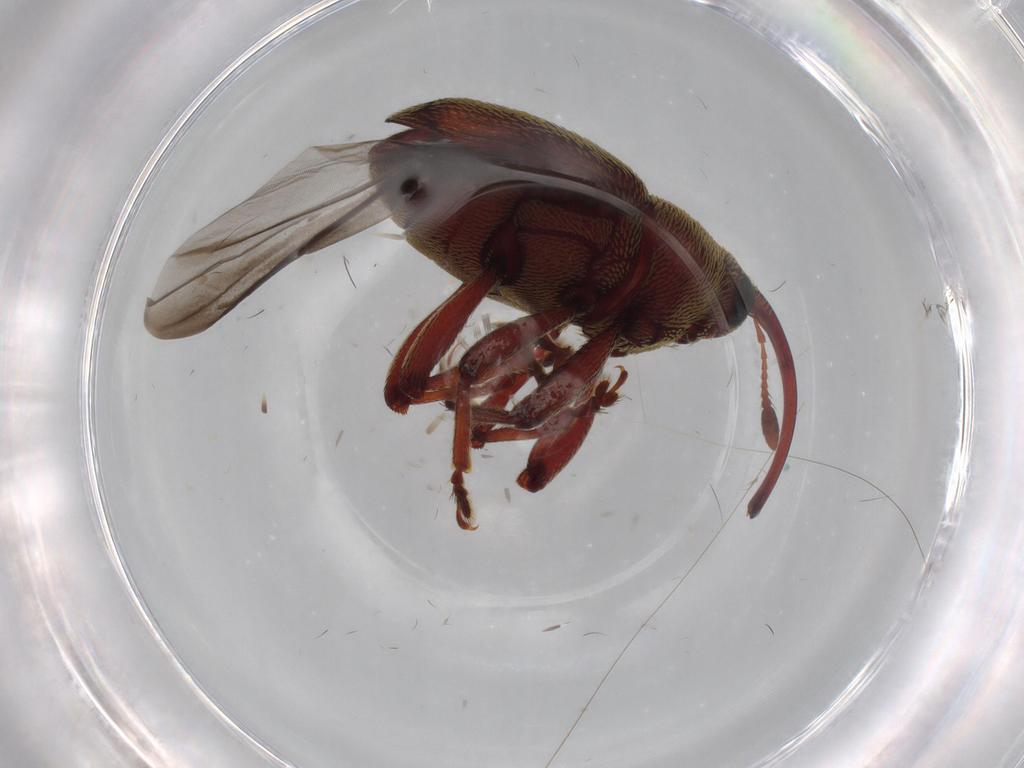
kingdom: Animalia
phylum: Arthropoda
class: Insecta
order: Coleoptera
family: Curculionidae
